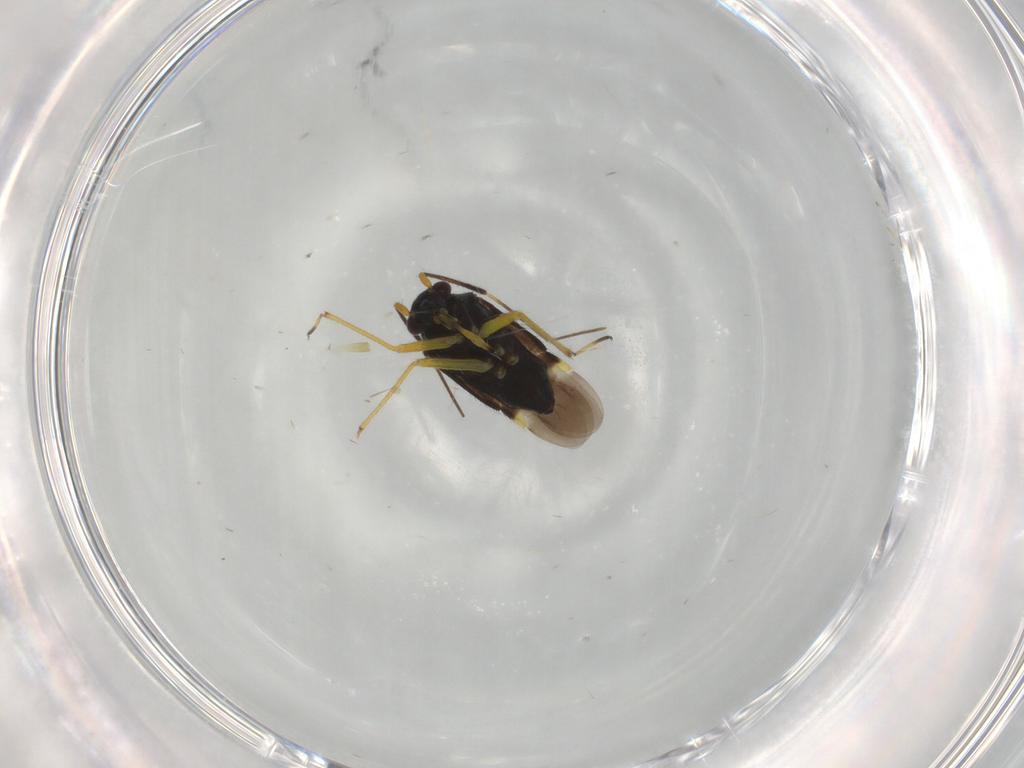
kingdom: Animalia
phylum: Arthropoda
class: Insecta
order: Hemiptera
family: Miridae
